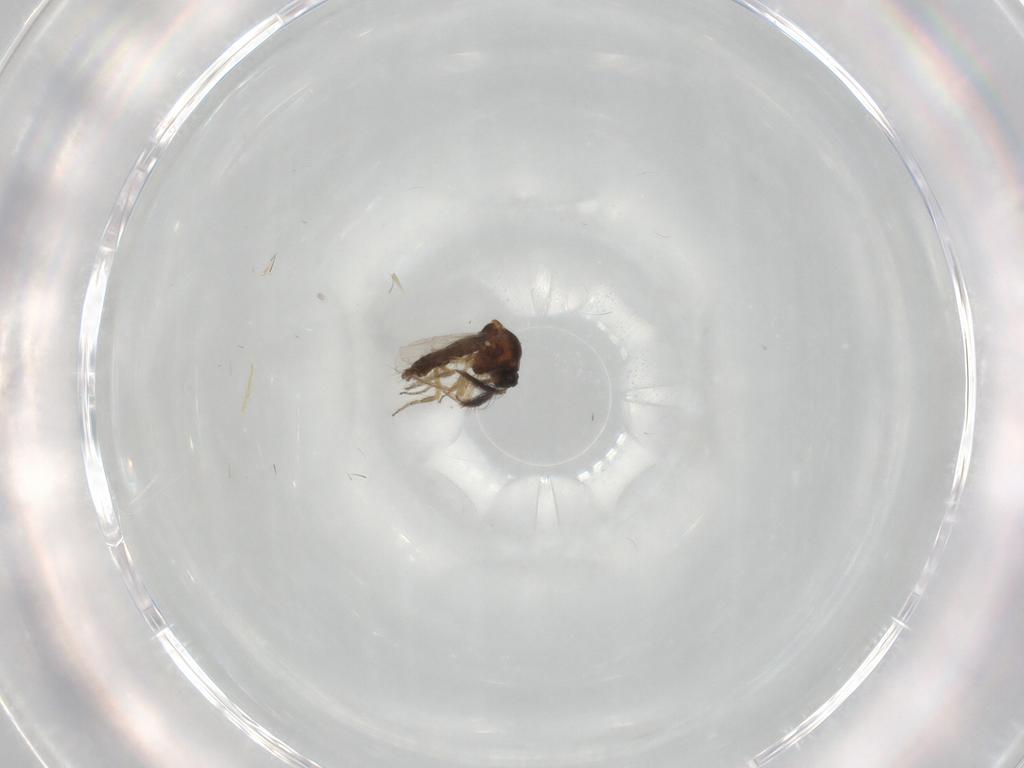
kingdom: Animalia
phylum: Arthropoda
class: Insecta
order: Diptera
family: Ceratopogonidae
